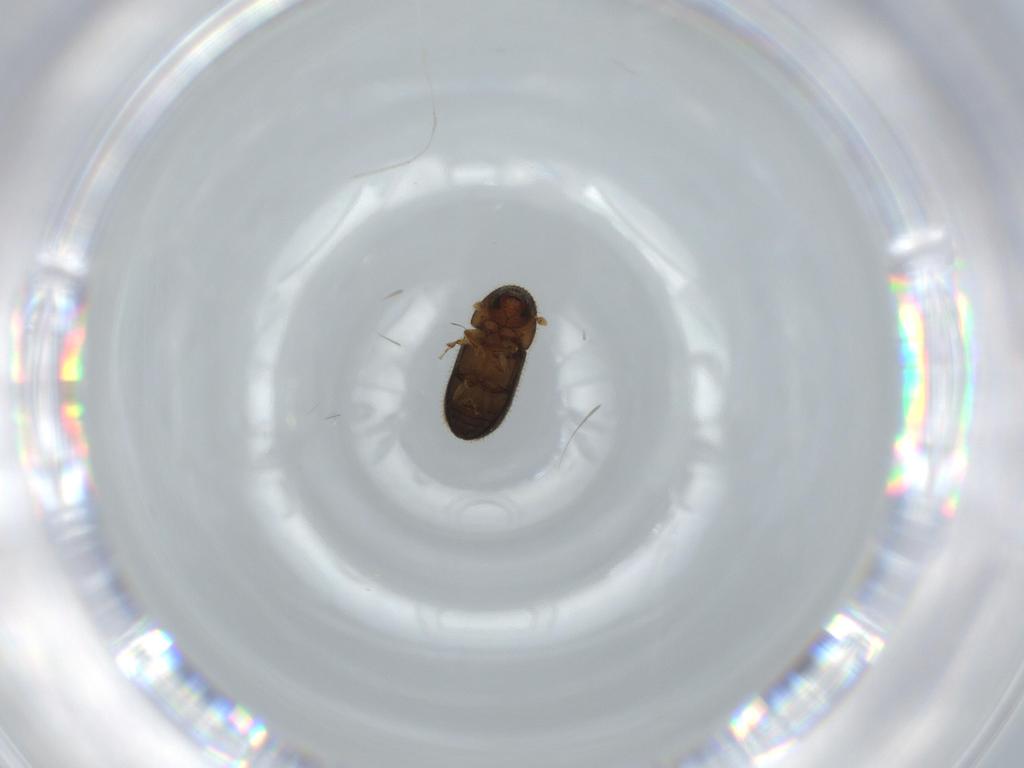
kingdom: Animalia
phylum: Arthropoda
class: Insecta
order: Coleoptera
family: Curculionidae
